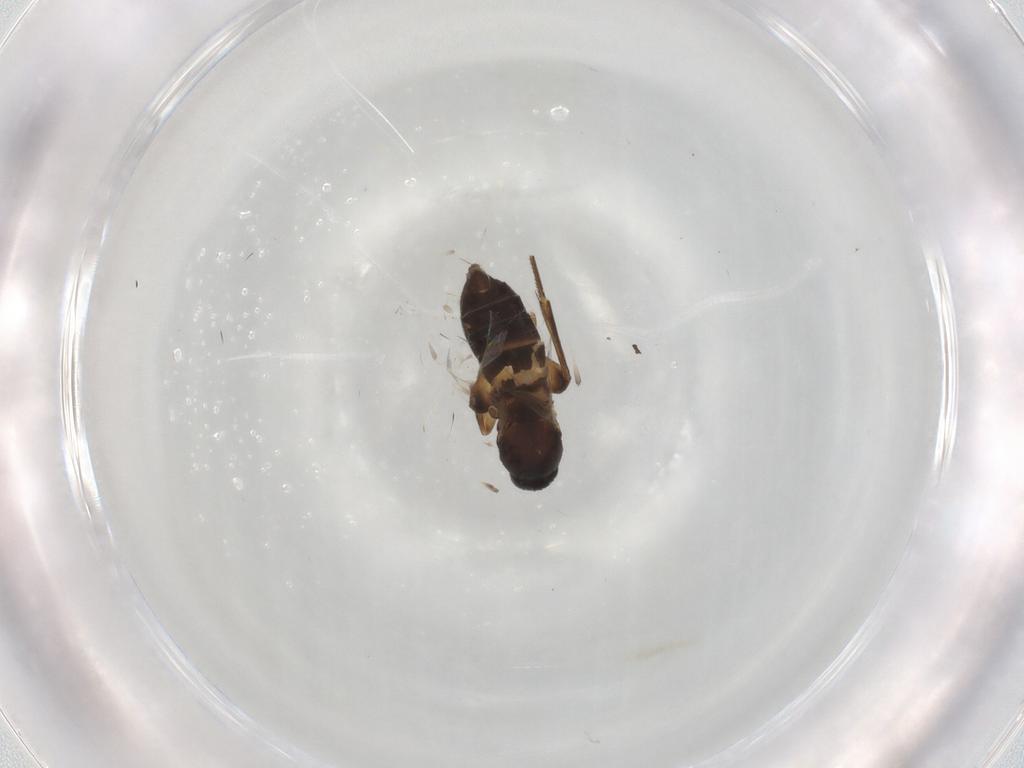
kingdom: Animalia
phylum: Arthropoda
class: Insecta
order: Diptera
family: Phoridae
